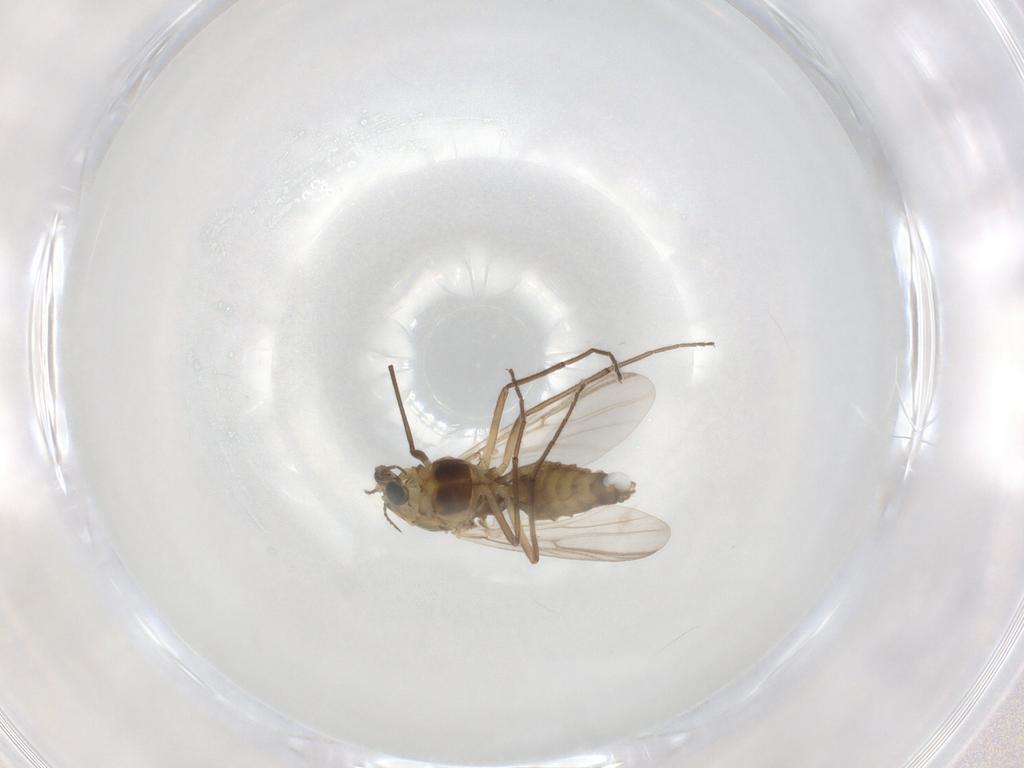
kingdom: Animalia
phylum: Arthropoda
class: Insecta
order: Diptera
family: Chironomidae
